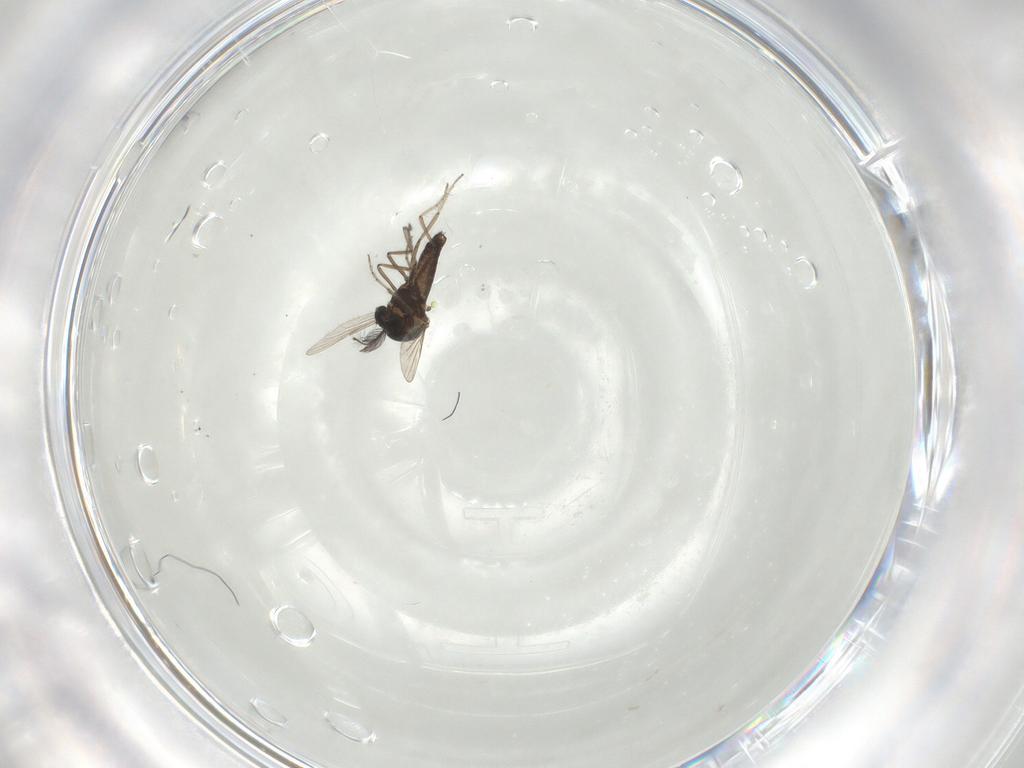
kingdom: Animalia
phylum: Arthropoda
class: Insecta
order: Diptera
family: Ceratopogonidae
